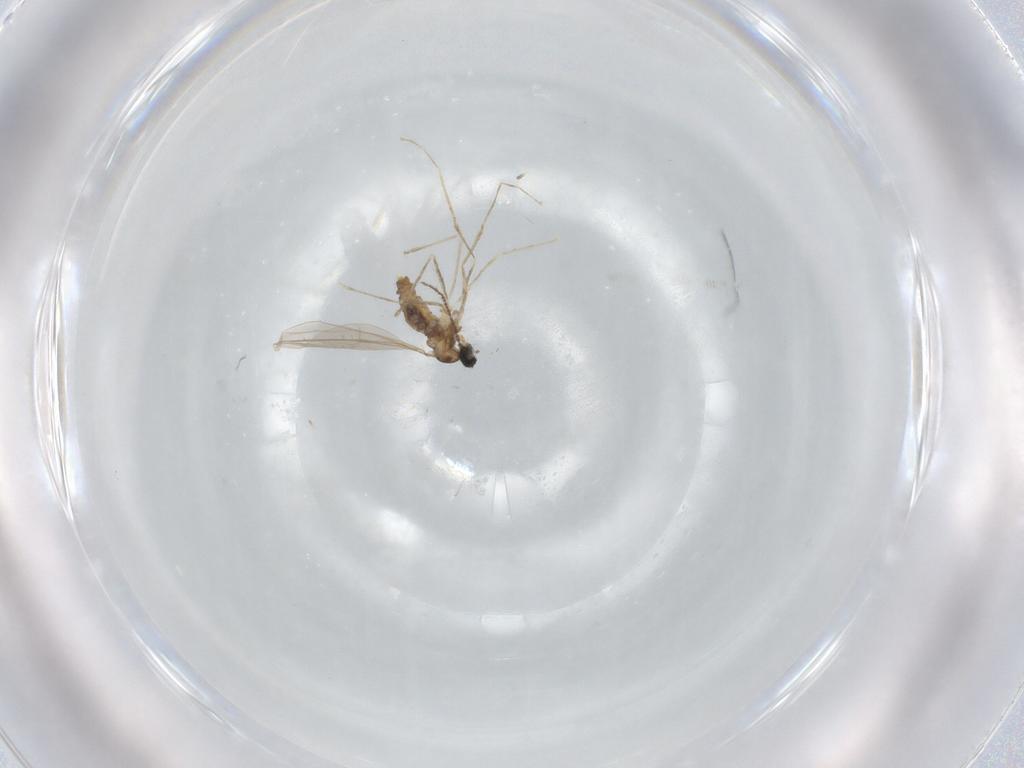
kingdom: Animalia
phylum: Arthropoda
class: Insecta
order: Diptera
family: Cecidomyiidae
